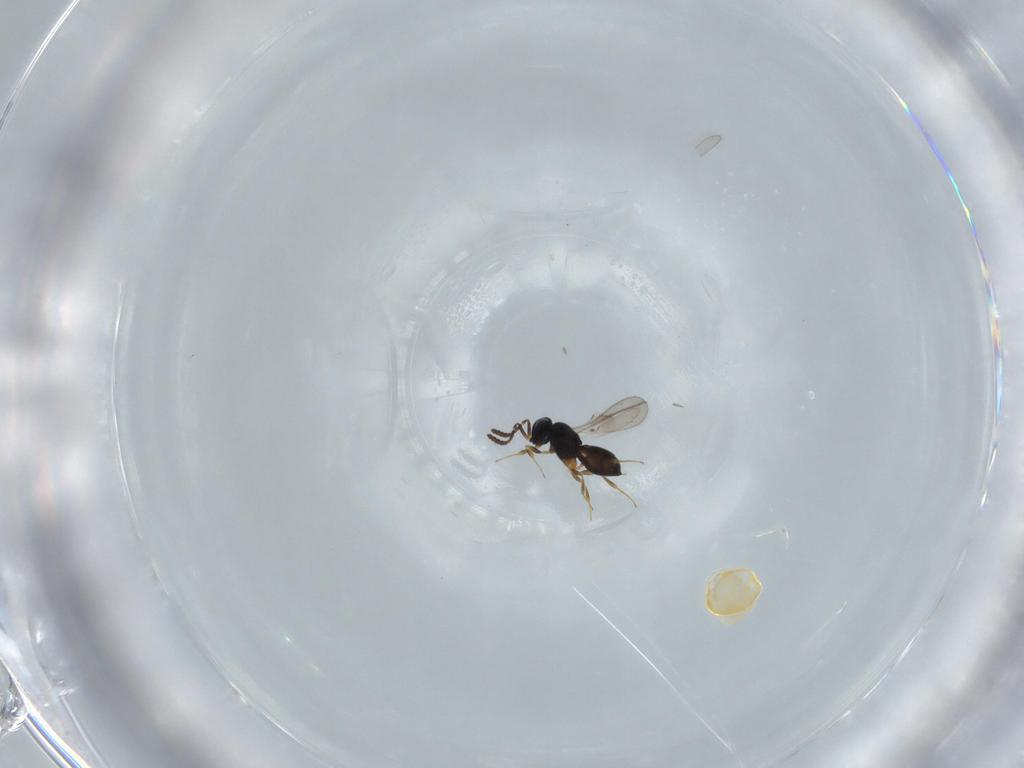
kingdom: Animalia
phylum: Arthropoda
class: Insecta
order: Hymenoptera
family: Scelionidae
